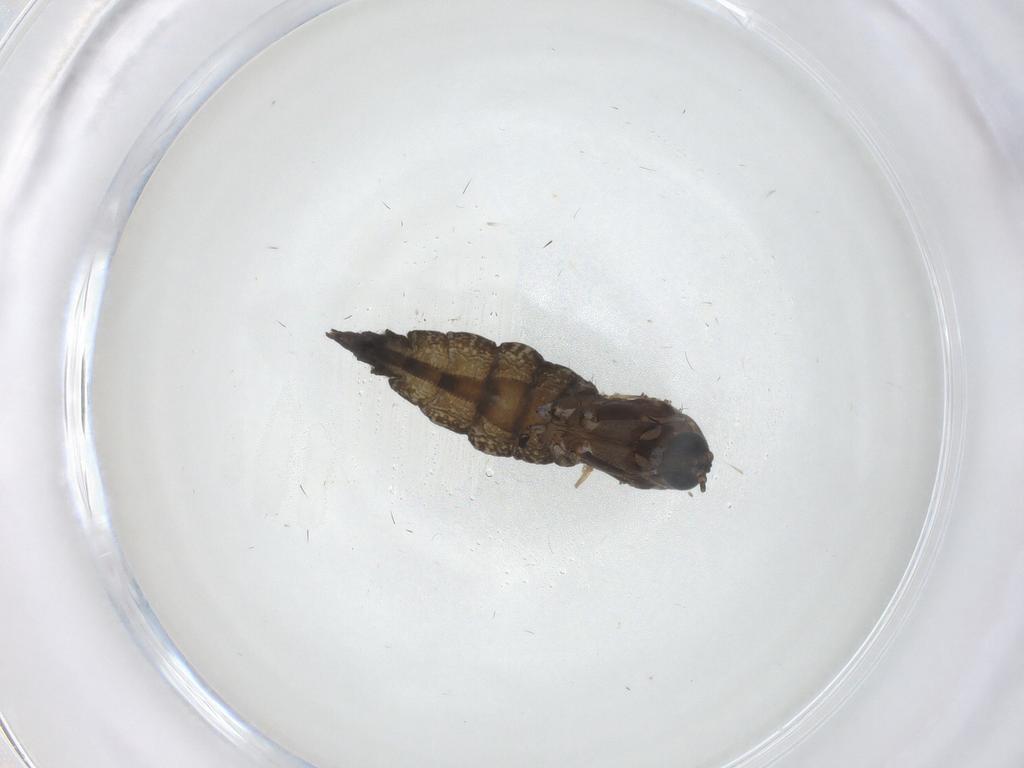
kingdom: Animalia
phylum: Arthropoda
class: Insecta
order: Diptera
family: Sciaridae
